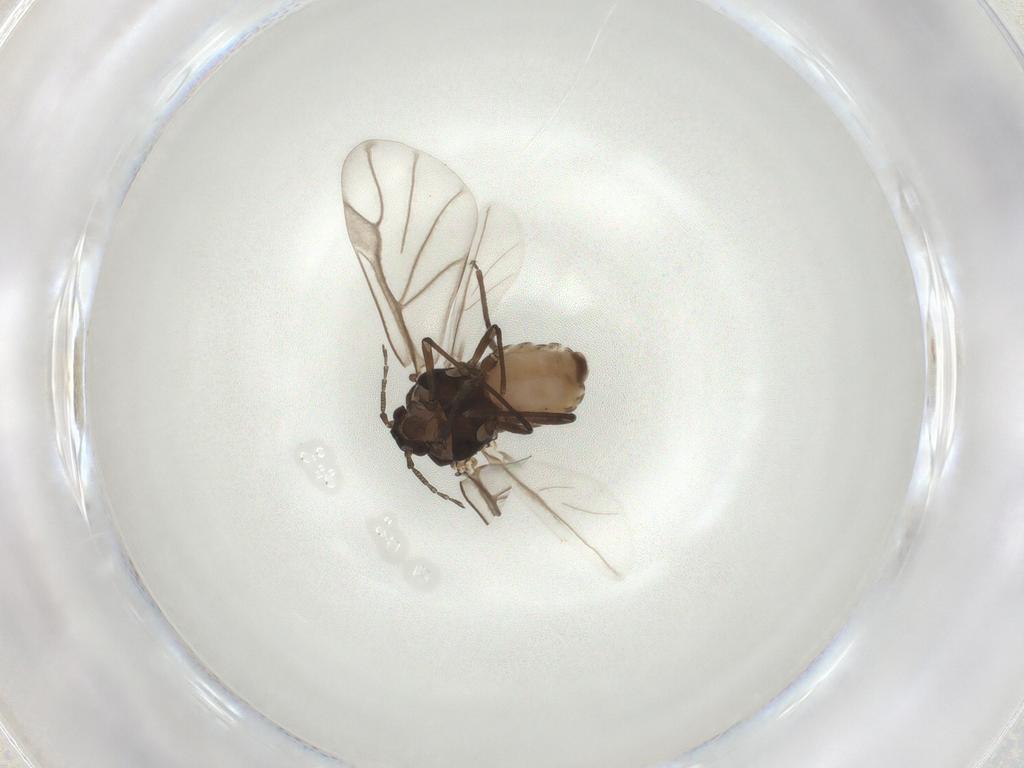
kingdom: Animalia
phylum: Arthropoda
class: Insecta
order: Hemiptera
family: Aphididae
